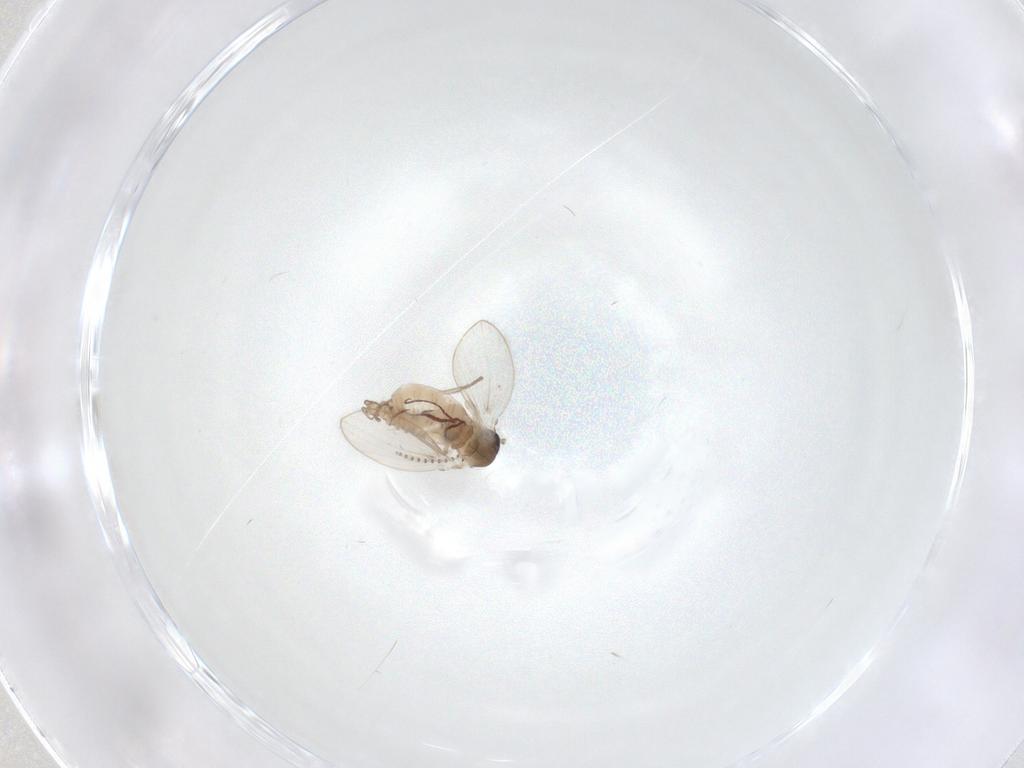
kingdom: Animalia
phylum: Arthropoda
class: Insecta
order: Diptera
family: Psychodidae
